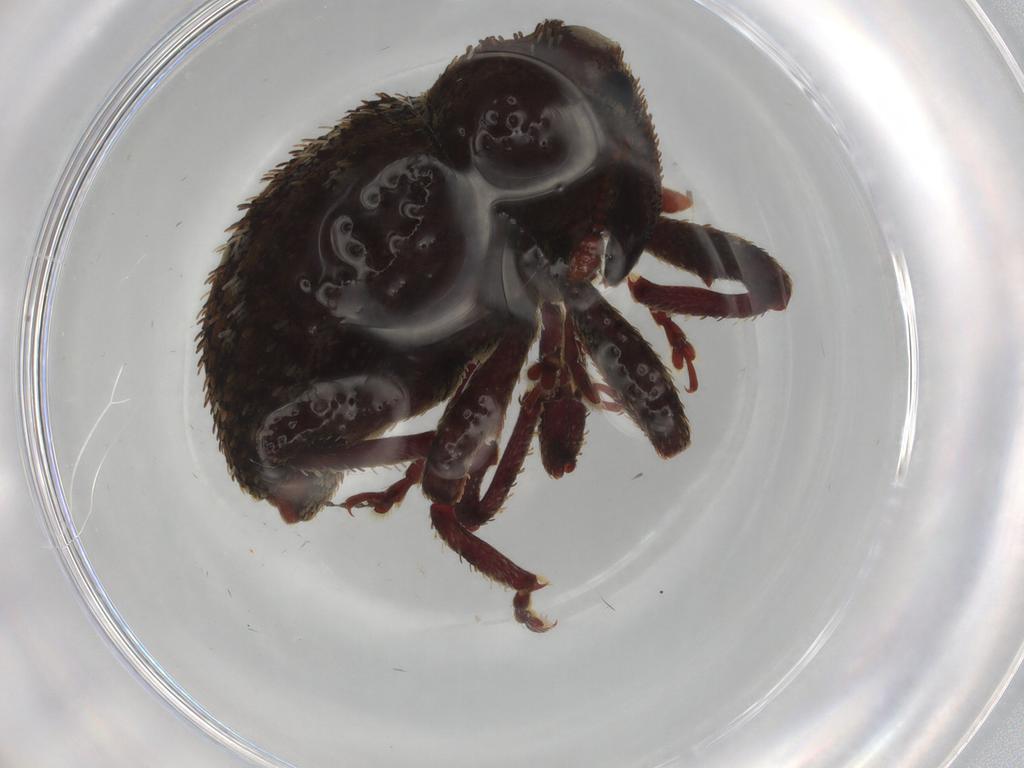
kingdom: Animalia
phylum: Arthropoda
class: Insecta
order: Coleoptera
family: Curculionidae
